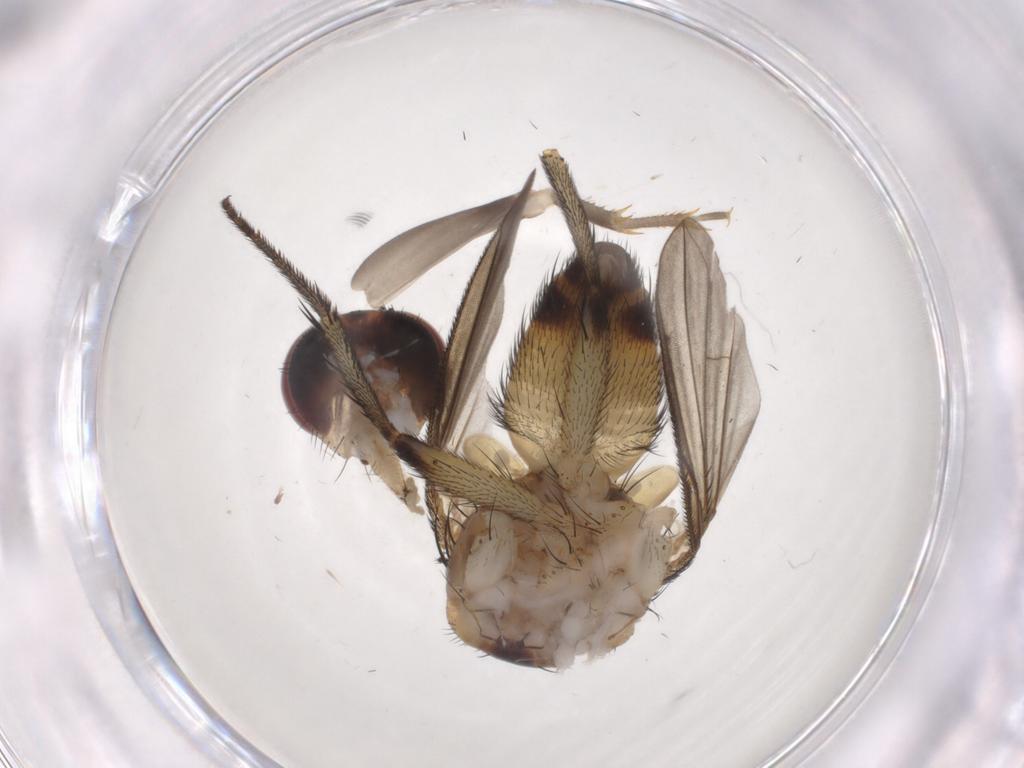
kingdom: Animalia
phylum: Arthropoda
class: Insecta
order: Diptera
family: Tachinidae
